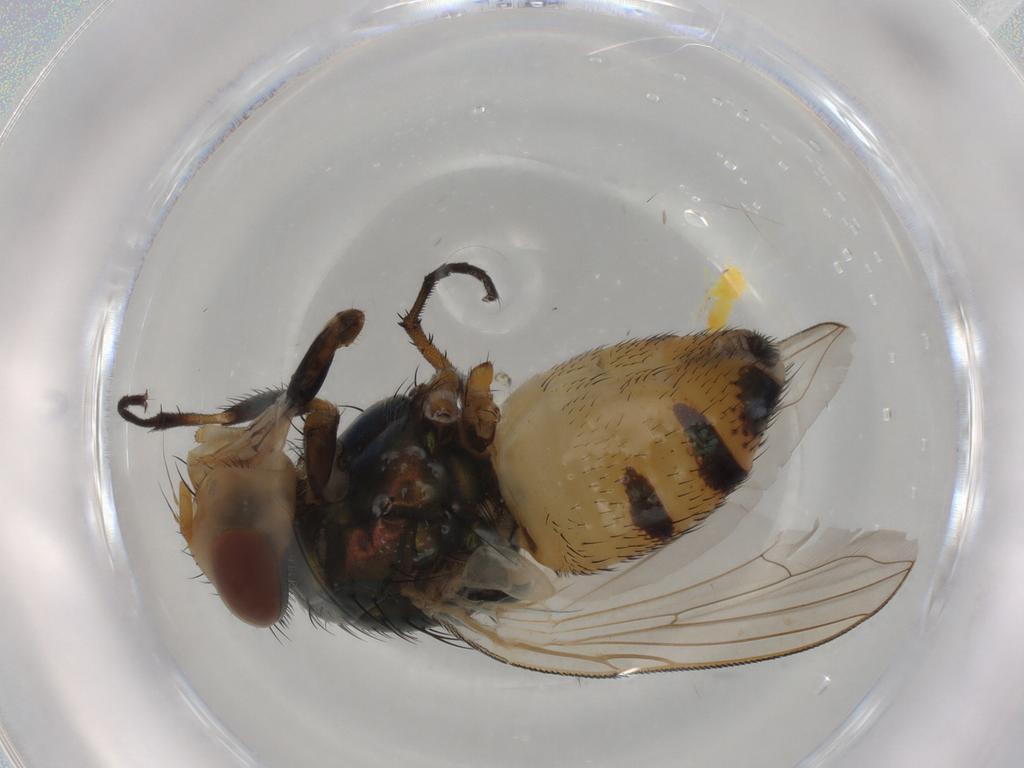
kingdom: Animalia
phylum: Arthropoda
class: Insecta
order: Diptera
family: Calliphoridae
